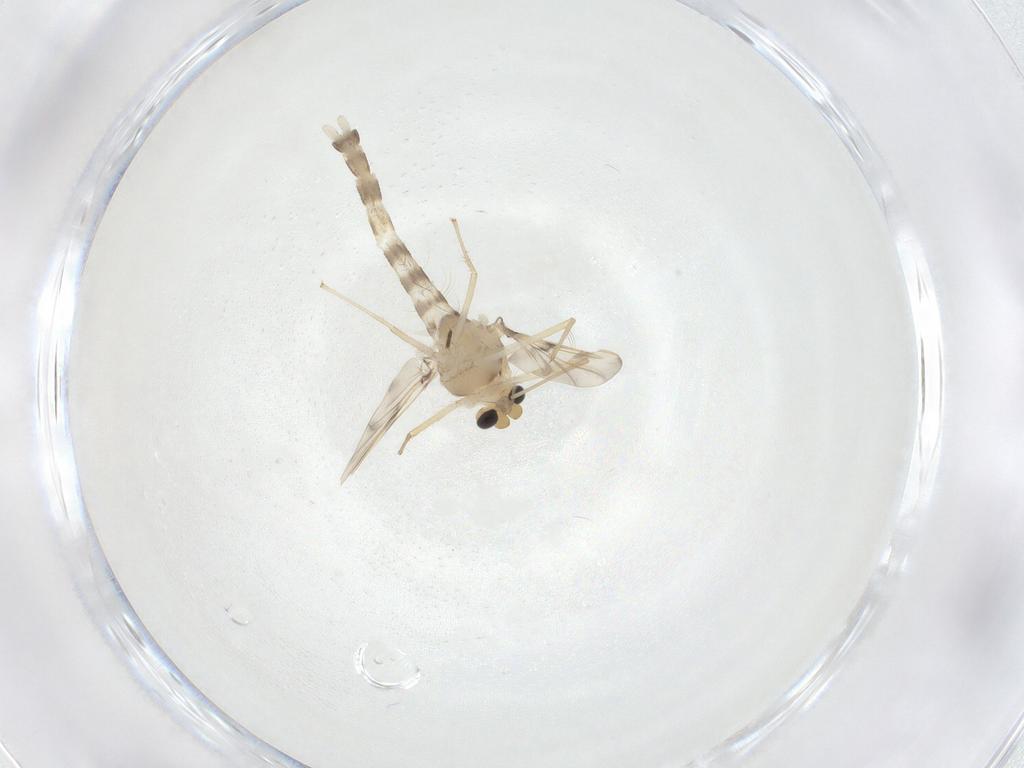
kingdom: Animalia
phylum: Arthropoda
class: Insecta
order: Diptera
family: Chironomidae
